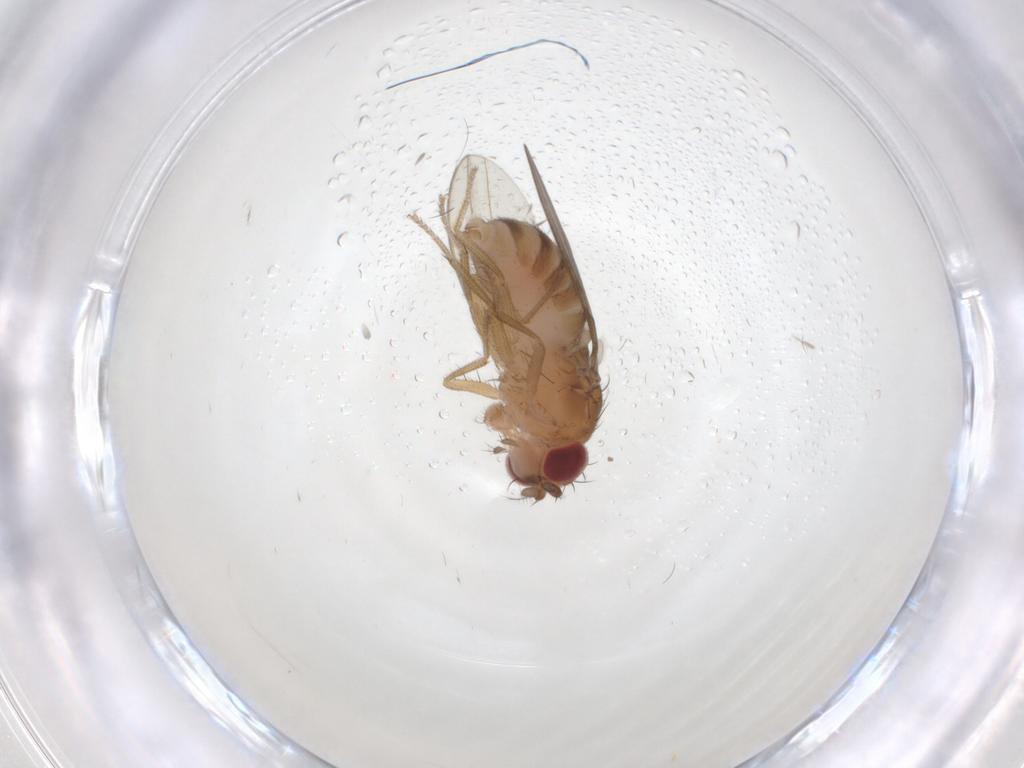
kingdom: Animalia
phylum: Arthropoda
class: Insecta
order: Diptera
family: Drosophilidae
